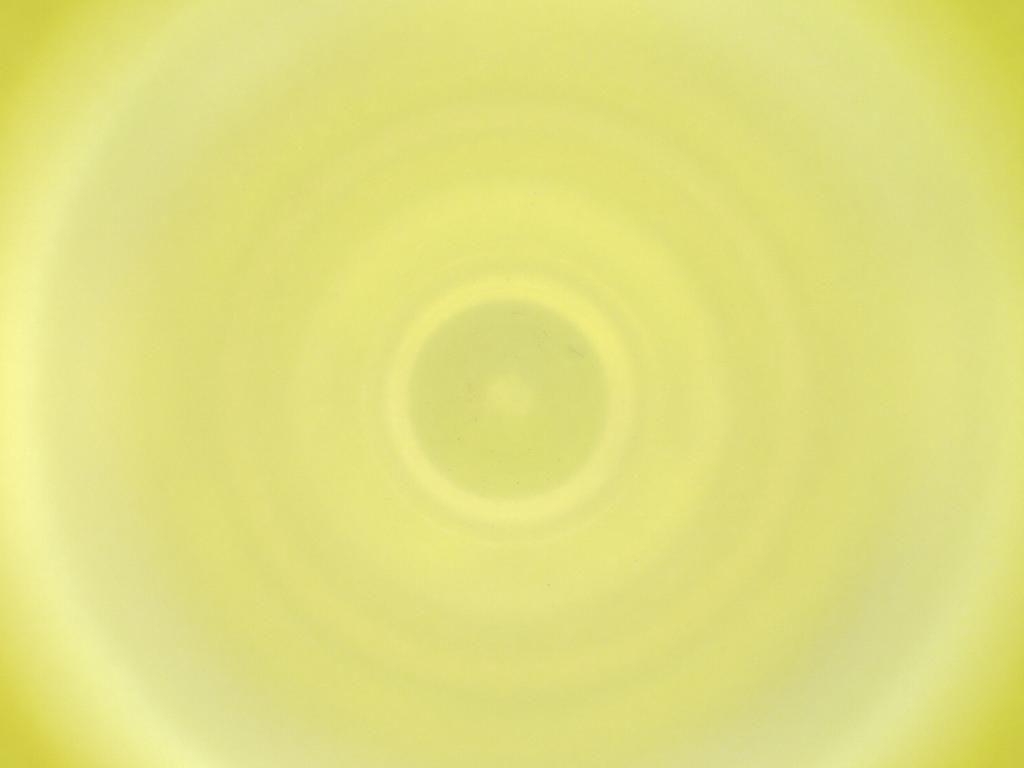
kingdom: Animalia
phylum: Arthropoda
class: Insecta
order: Diptera
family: Cecidomyiidae
